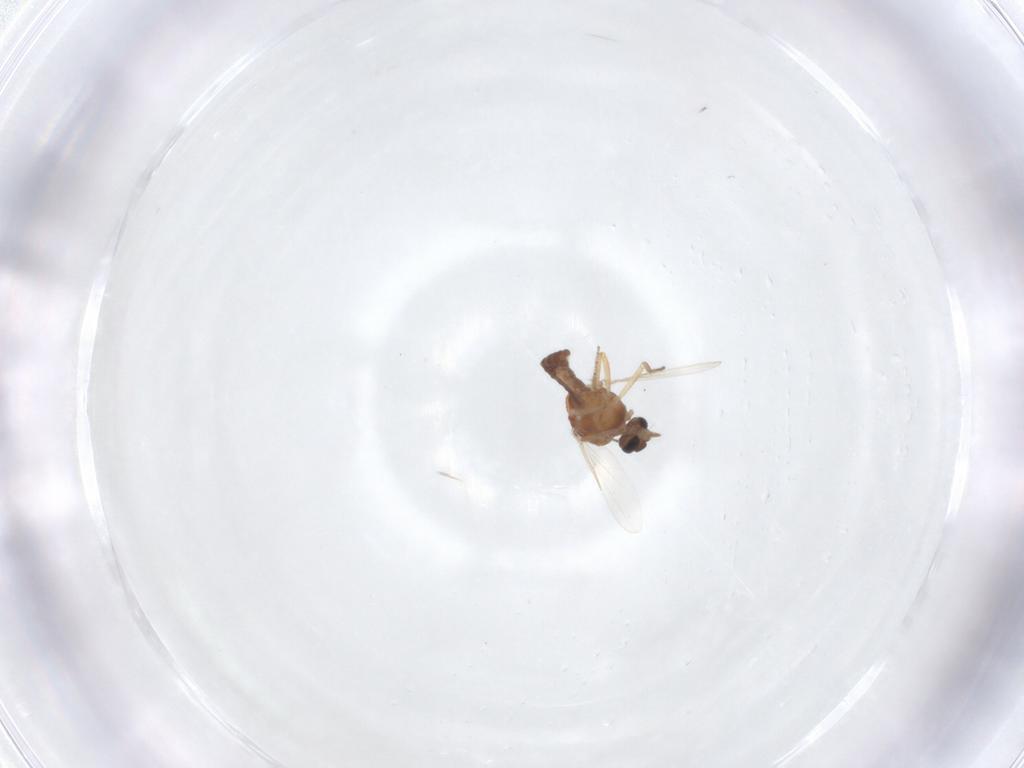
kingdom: Animalia
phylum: Arthropoda
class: Insecta
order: Diptera
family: Ceratopogonidae
